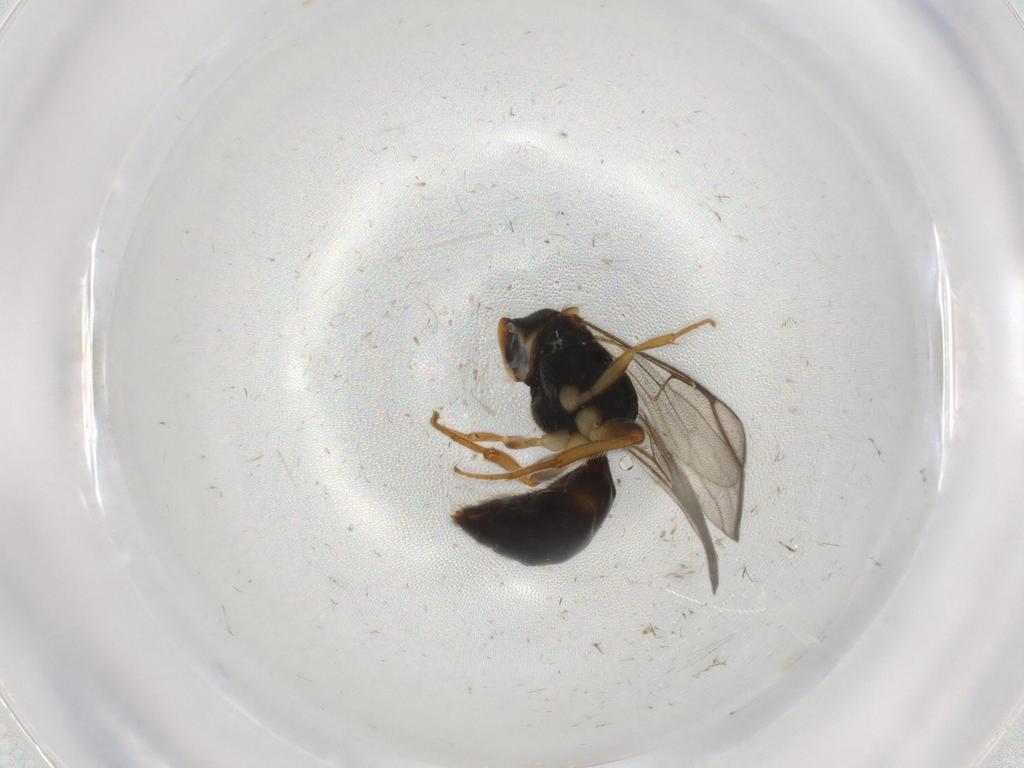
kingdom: Animalia
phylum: Arthropoda
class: Insecta
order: Hymenoptera
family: Bethylidae
